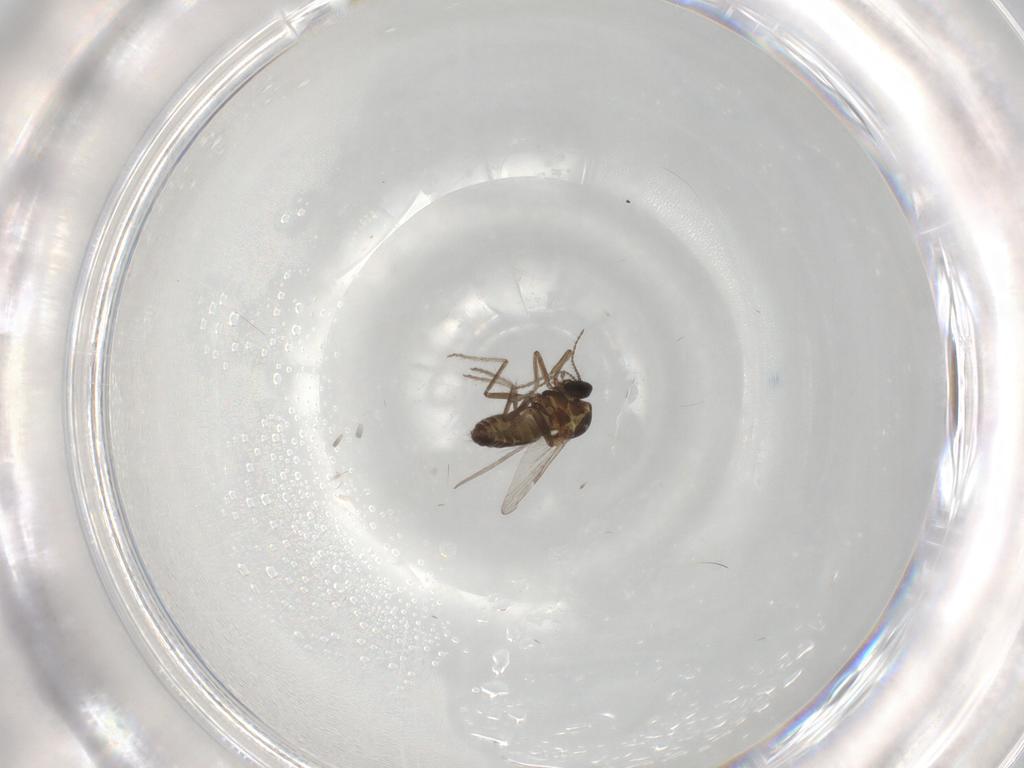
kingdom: Animalia
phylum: Arthropoda
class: Insecta
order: Diptera
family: Ceratopogonidae
